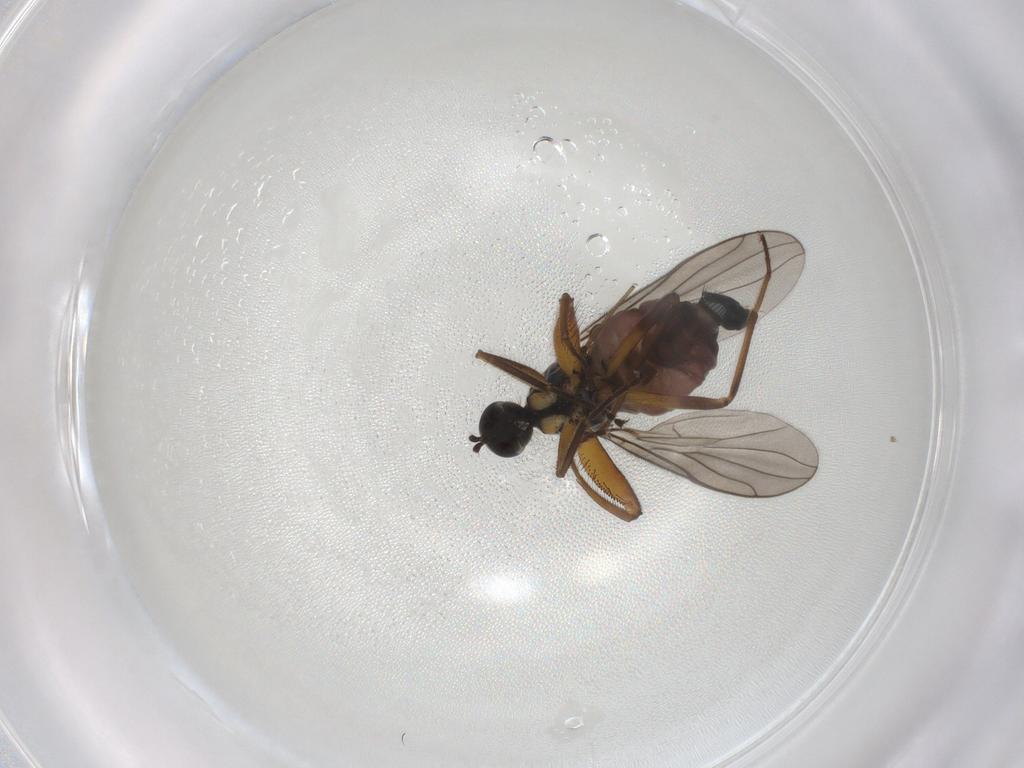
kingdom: Animalia
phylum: Arthropoda
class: Insecta
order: Diptera
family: Hybotidae
